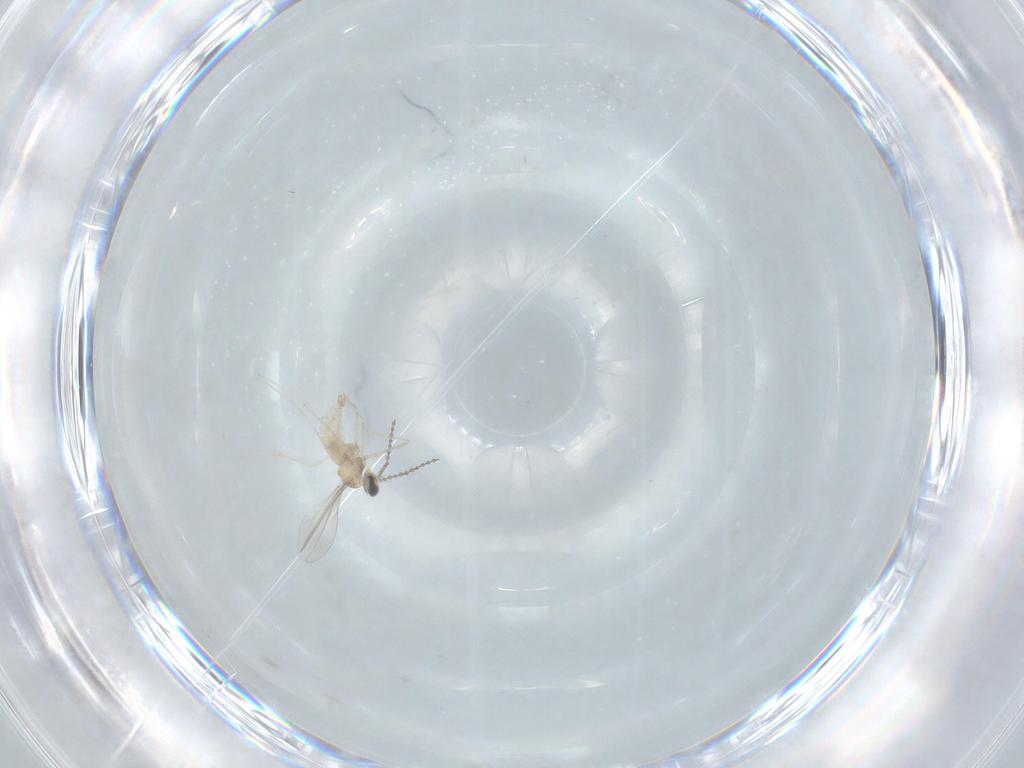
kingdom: Animalia
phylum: Arthropoda
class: Insecta
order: Diptera
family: Cecidomyiidae
